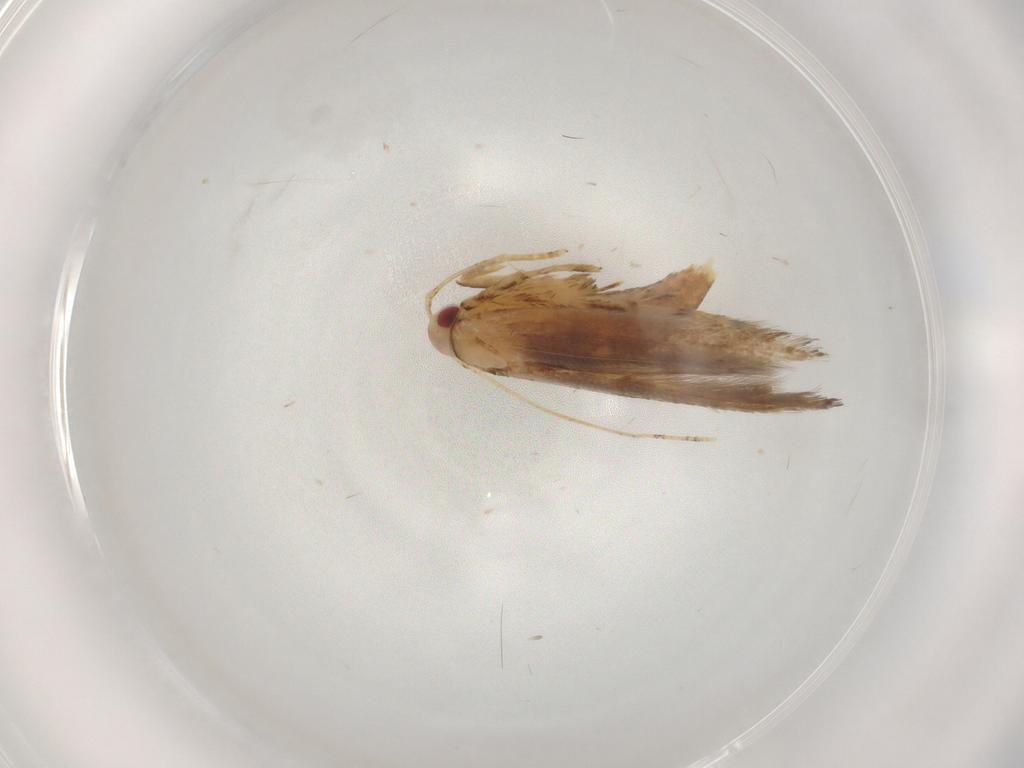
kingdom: Animalia
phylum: Arthropoda
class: Insecta
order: Lepidoptera
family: Cosmopterigidae
